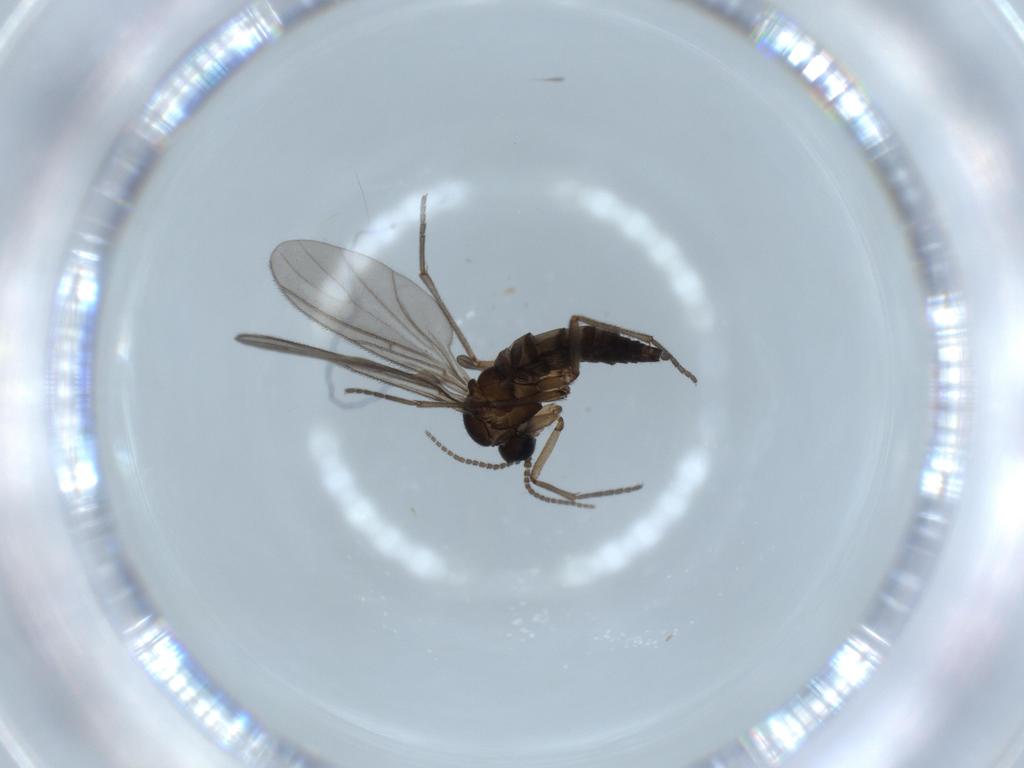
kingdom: Animalia
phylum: Arthropoda
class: Insecta
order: Diptera
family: Sciaridae
